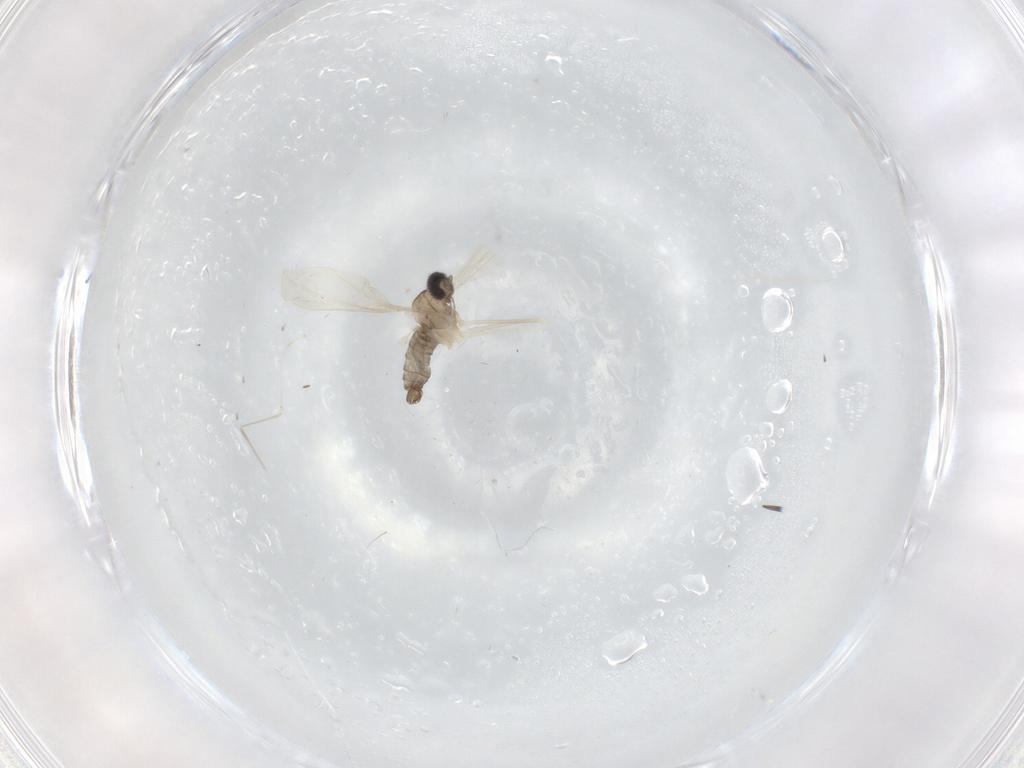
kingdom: Animalia
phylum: Arthropoda
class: Insecta
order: Diptera
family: Cecidomyiidae
